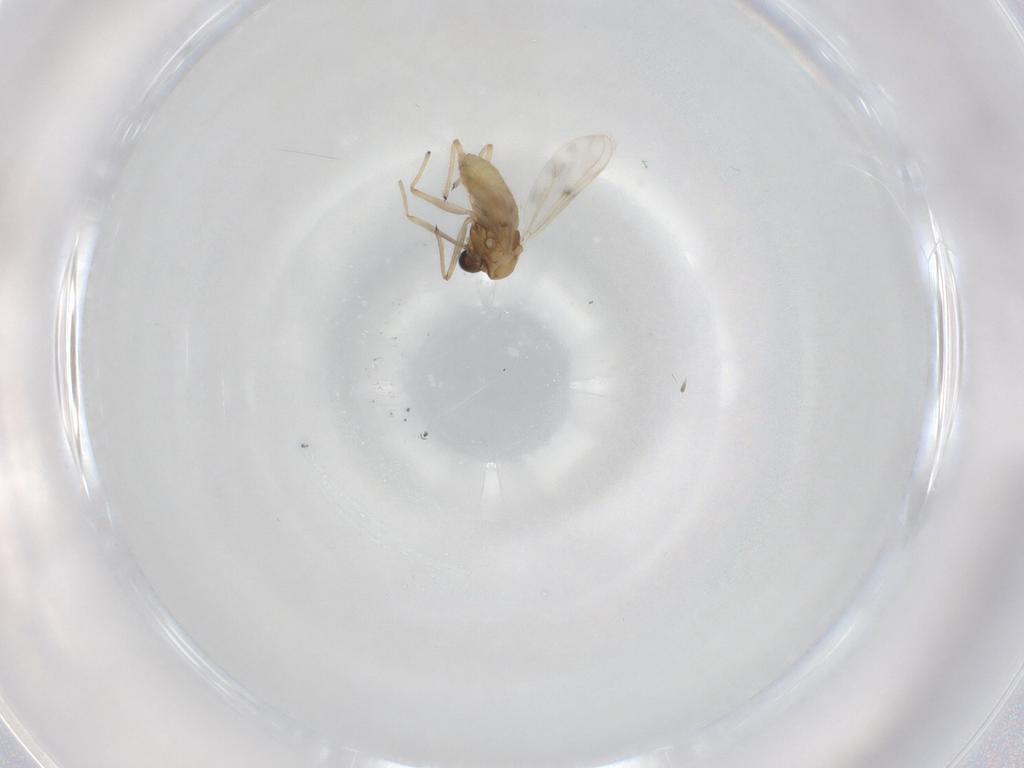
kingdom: Animalia
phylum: Arthropoda
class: Insecta
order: Diptera
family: Chironomidae
